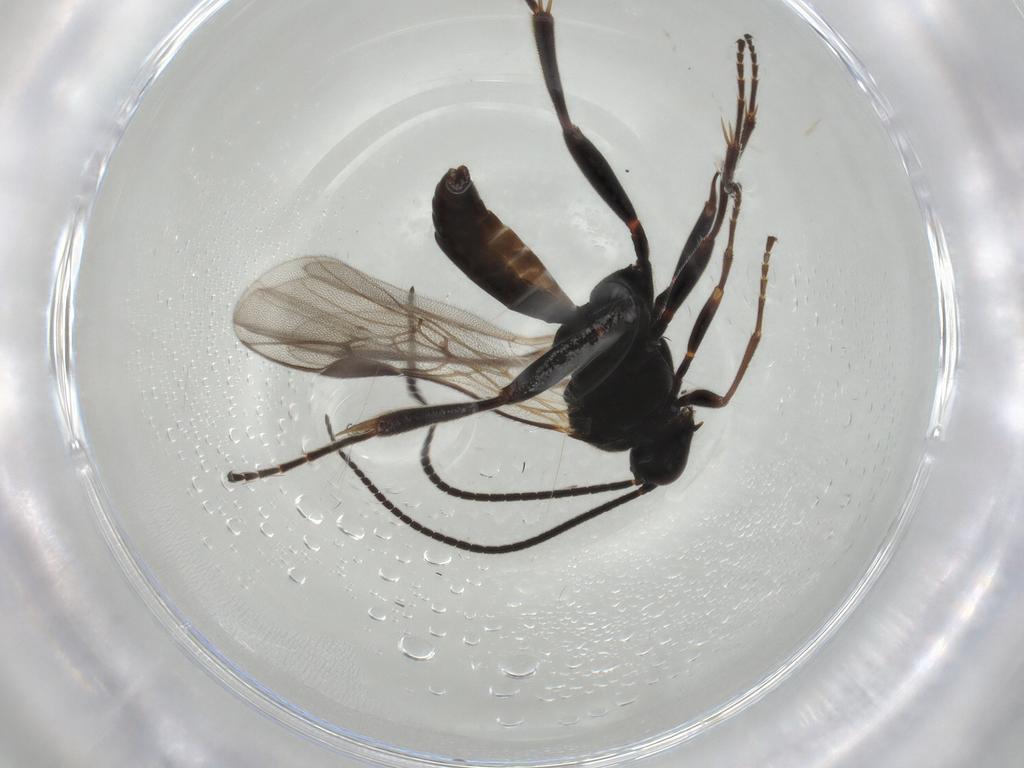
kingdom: Animalia
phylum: Arthropoda
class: Insecta
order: Hymenoptera
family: Braconidae
